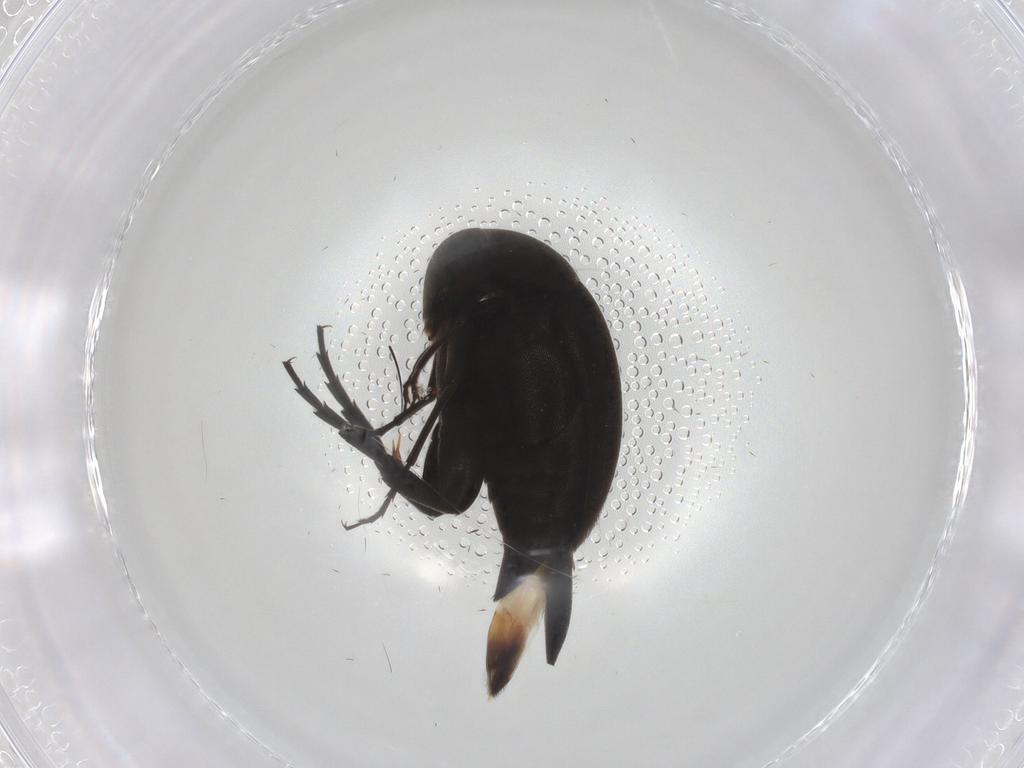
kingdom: Animalia
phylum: Arthropoda
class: Insecta
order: Coleoptera
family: Mordellidae
